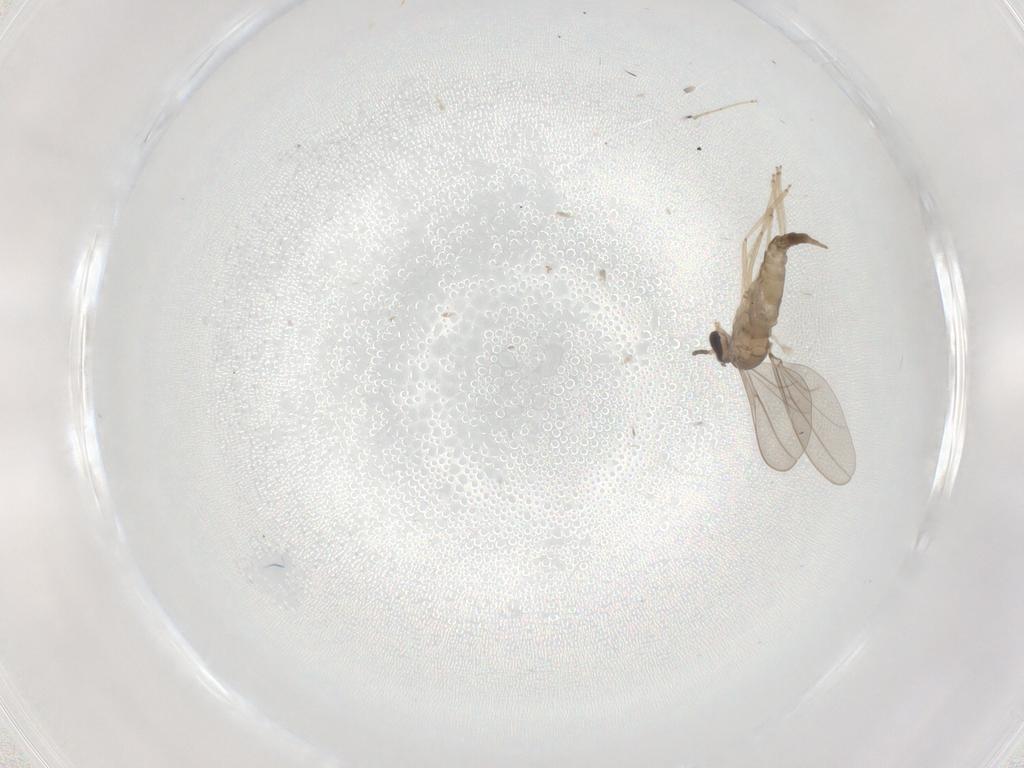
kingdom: Animalia
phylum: Arthropoda
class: Insecta
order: Diptera
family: Cecidomyiidae
